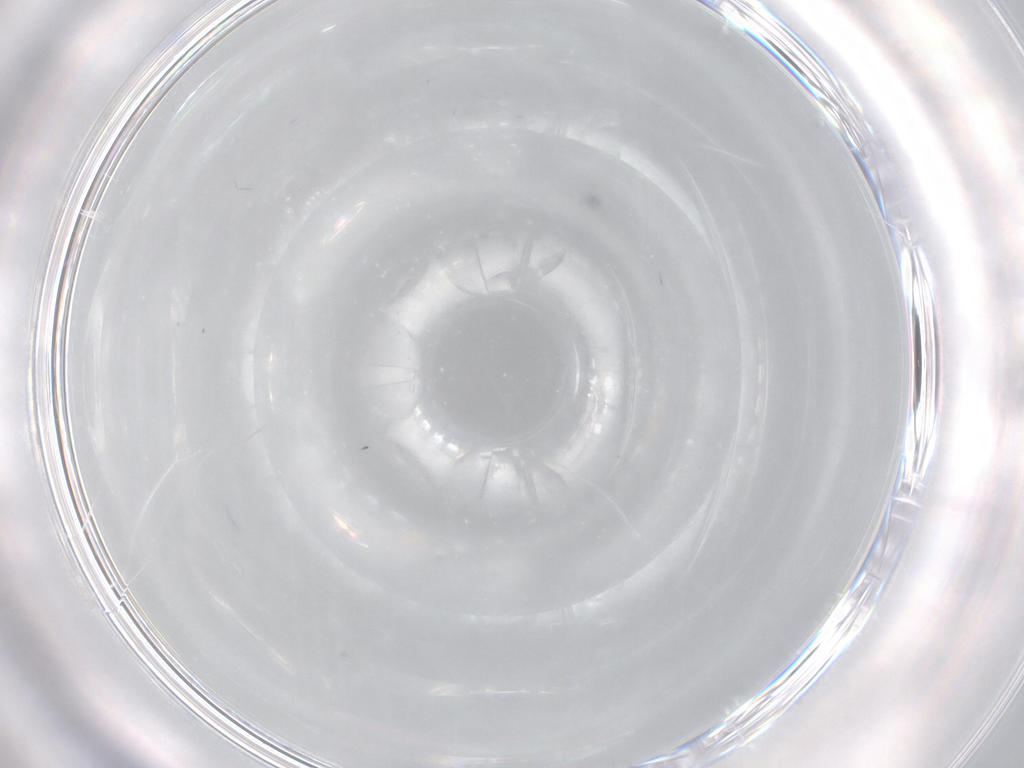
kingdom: Animalia
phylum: Arthropoda
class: Insecta
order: Diptera
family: Cecidomyiidae
